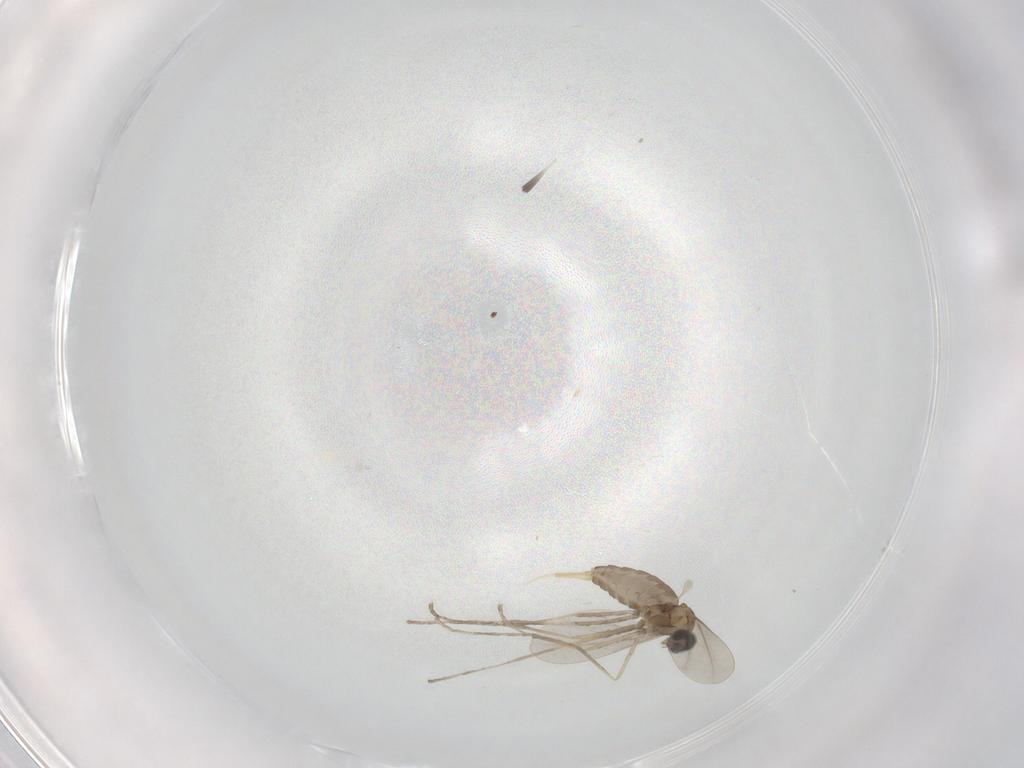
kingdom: Animalia
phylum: Arthropoda
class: Insecta
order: Diptera
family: Cecidomyiidae
